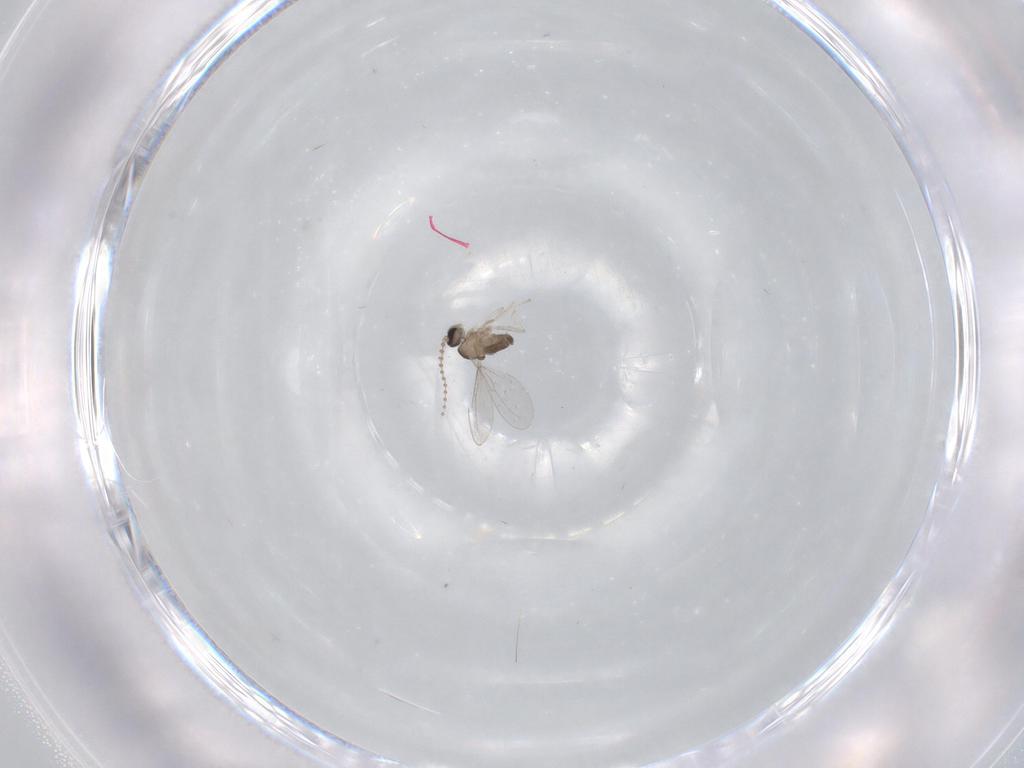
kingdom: Animalia
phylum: Arthropoda
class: Insecta
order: Diptera
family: Cecidomyiidae
